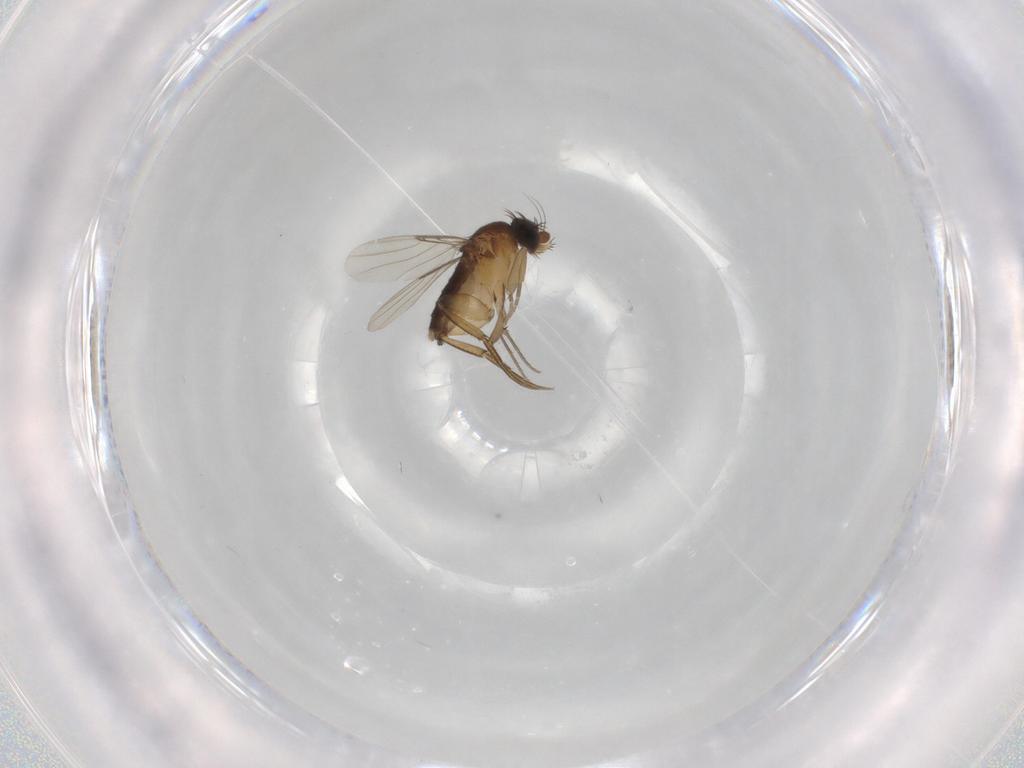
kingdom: Animalia
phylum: Arthropoda
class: Insecta
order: Diptera
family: Phoridae
